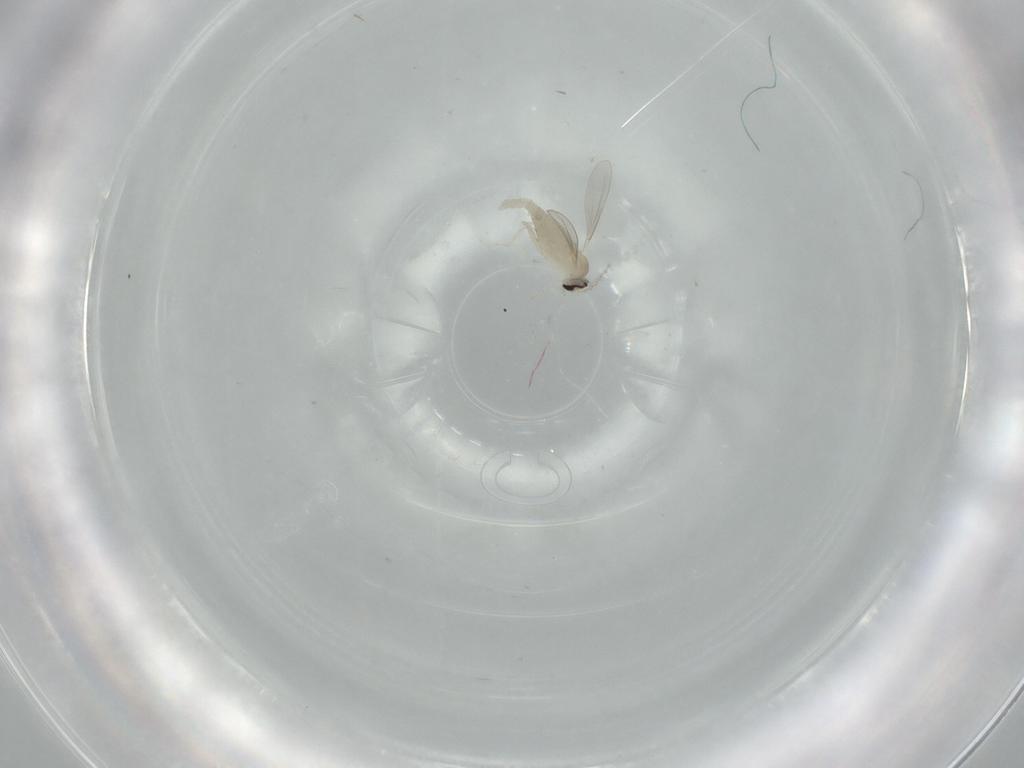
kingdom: Animalia
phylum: Arthropoda
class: Insecta
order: Diptera
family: Cecidomyiidae
